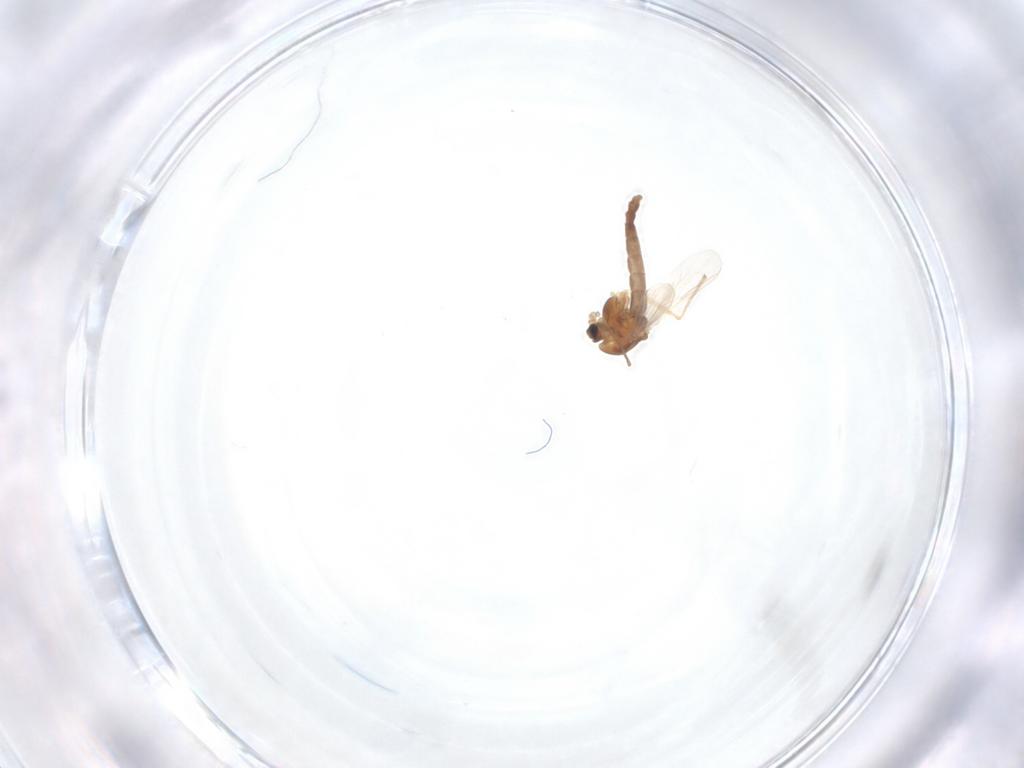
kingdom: Animalia
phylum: Arthropoda
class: Insecta
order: Diptera
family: Chironomidae
